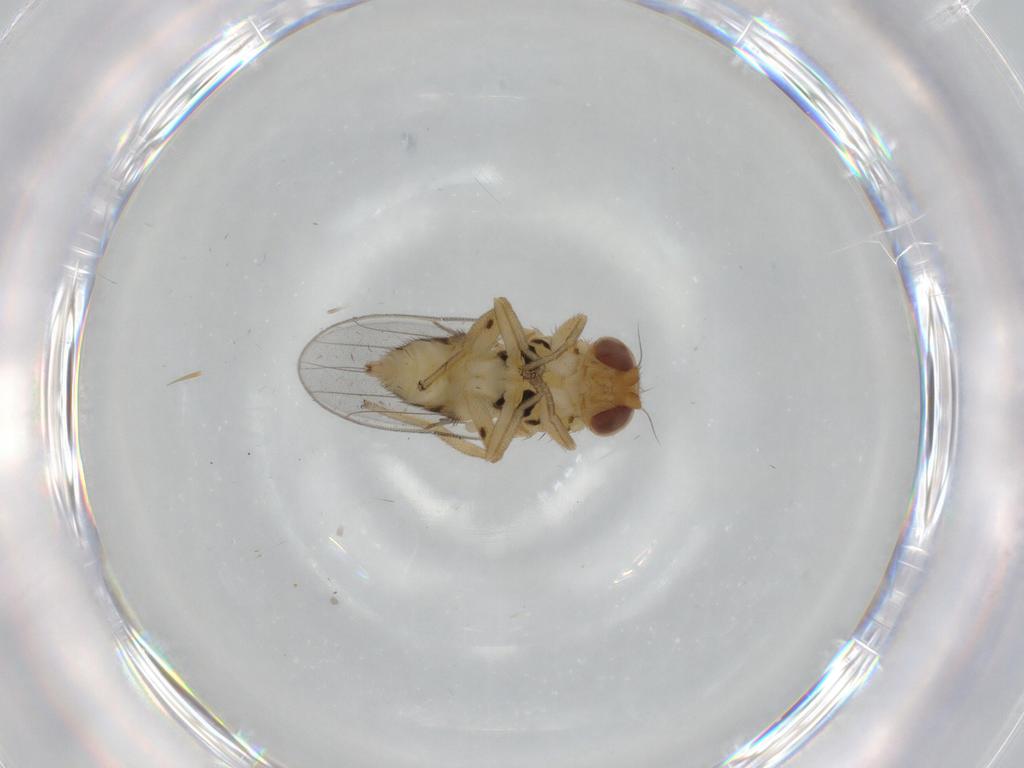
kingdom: Animalia
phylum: Arthropoda
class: Insecta
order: Diptera
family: Chloropidae
